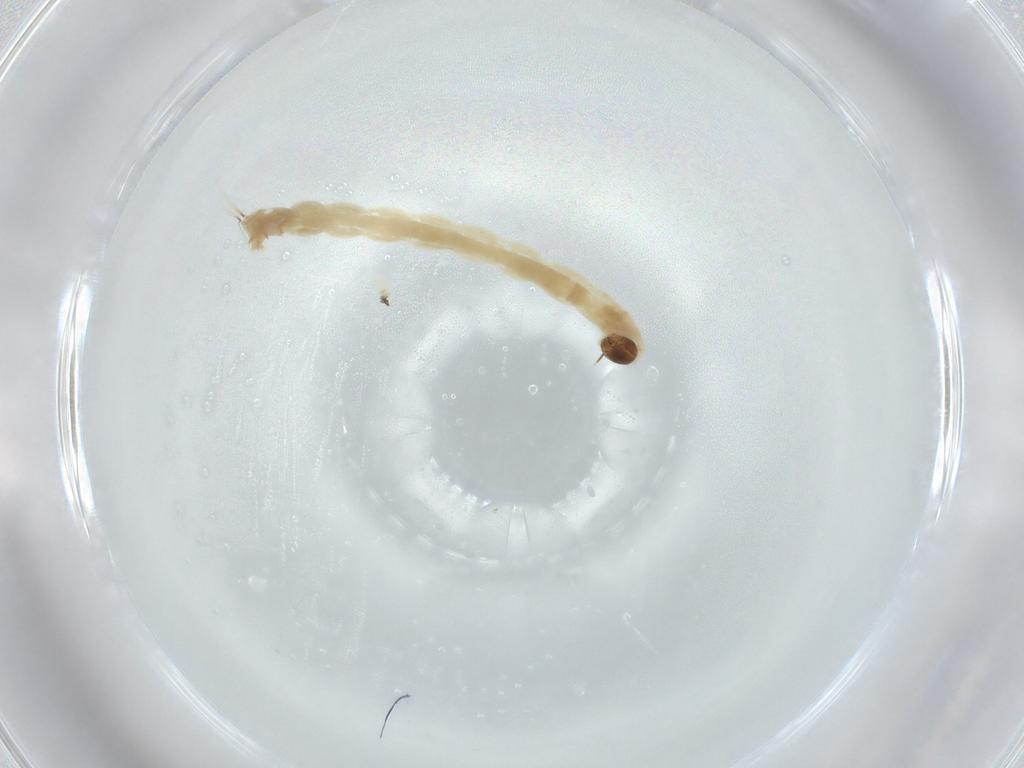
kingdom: Animalia
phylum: Arthropoda
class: Insecta
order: Diptera
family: Chironomidae
